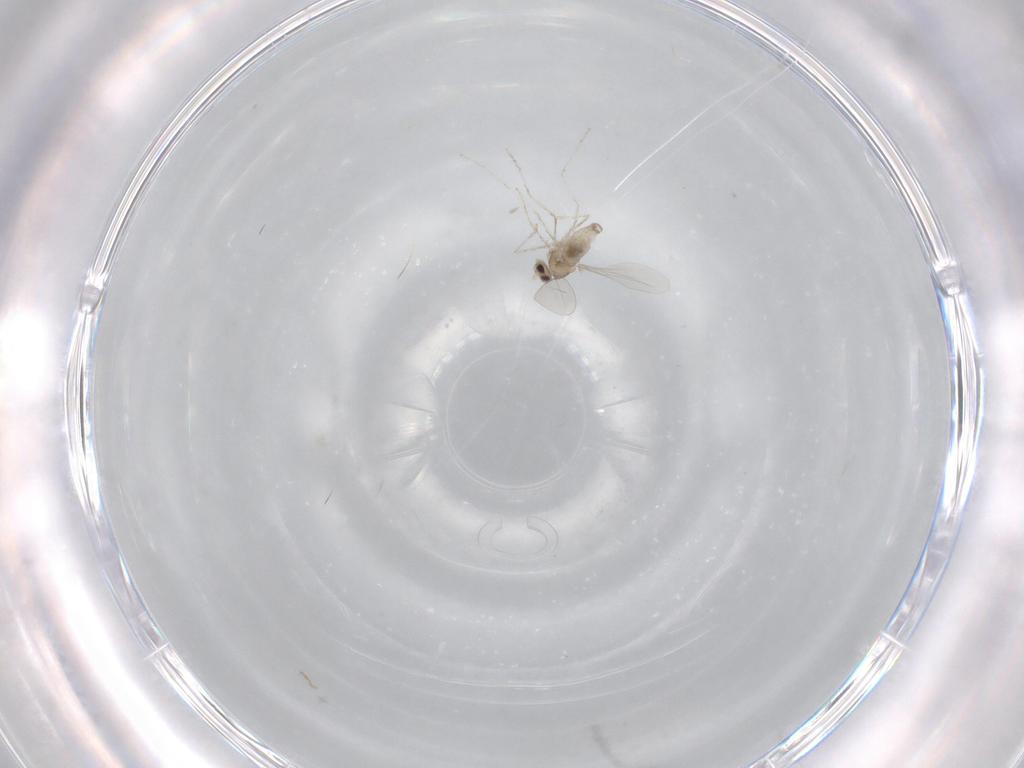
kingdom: Animalia
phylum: Arthropoda
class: Insecta
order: Diptera
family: Cecidomyiidae
